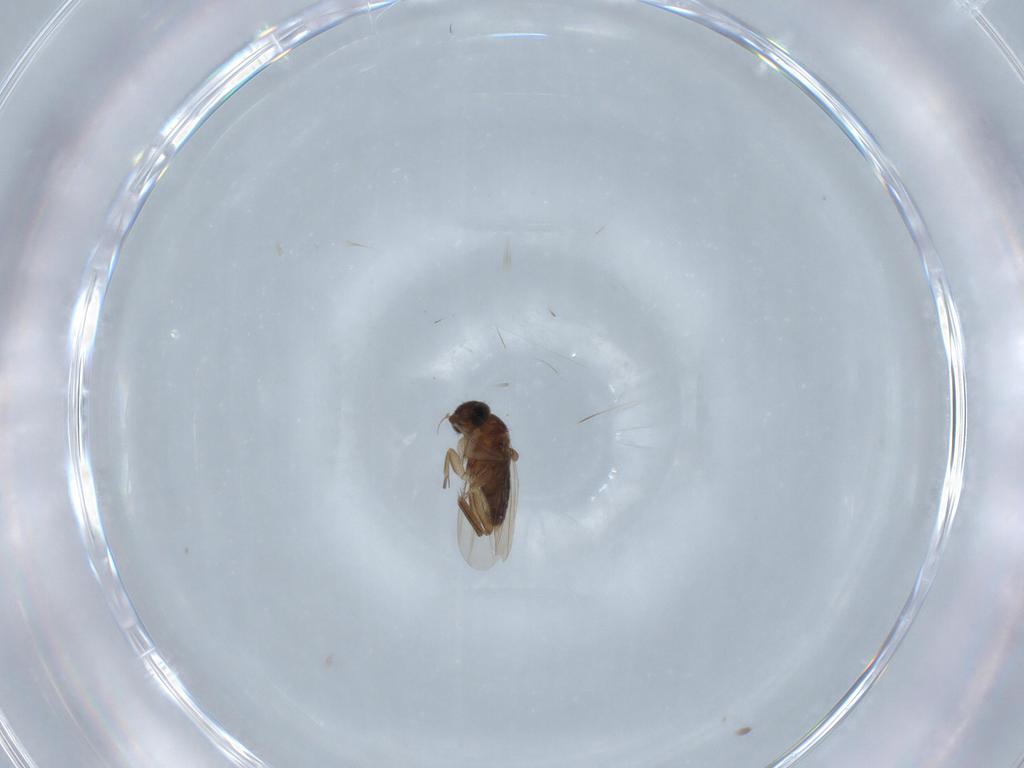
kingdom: Animalia
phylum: Arthropoda
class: Insecta
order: Diptera
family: Phoridae
